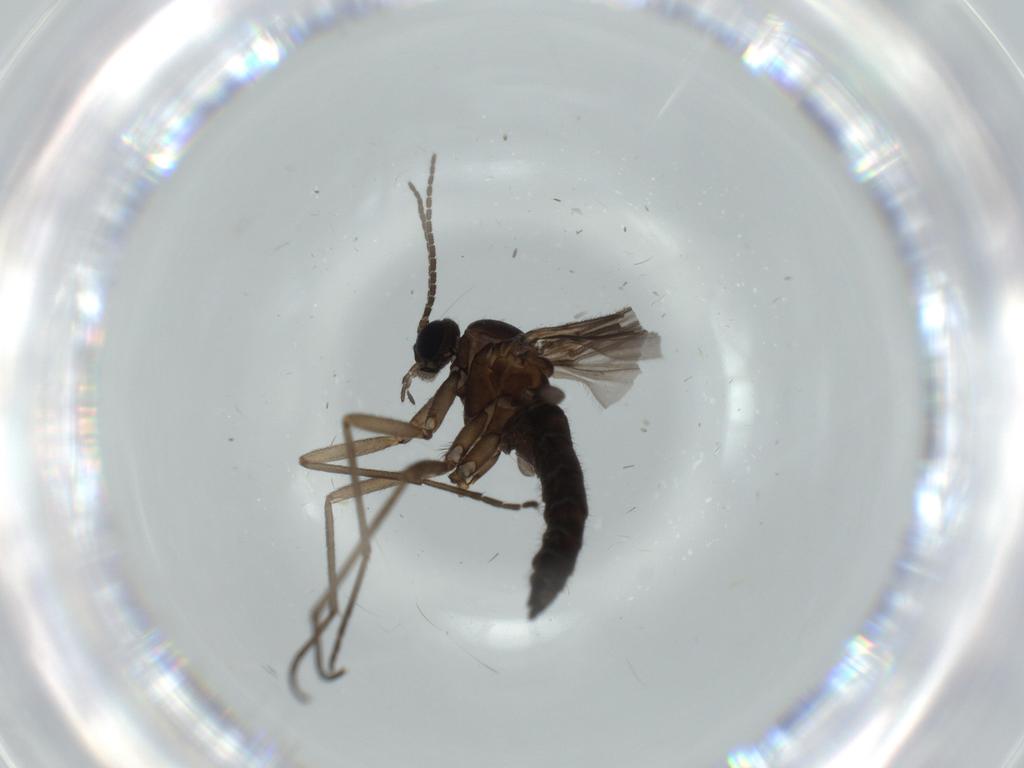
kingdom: Animalia
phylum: Arthropoda
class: Insecta
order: Diptera
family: Sciaridae
